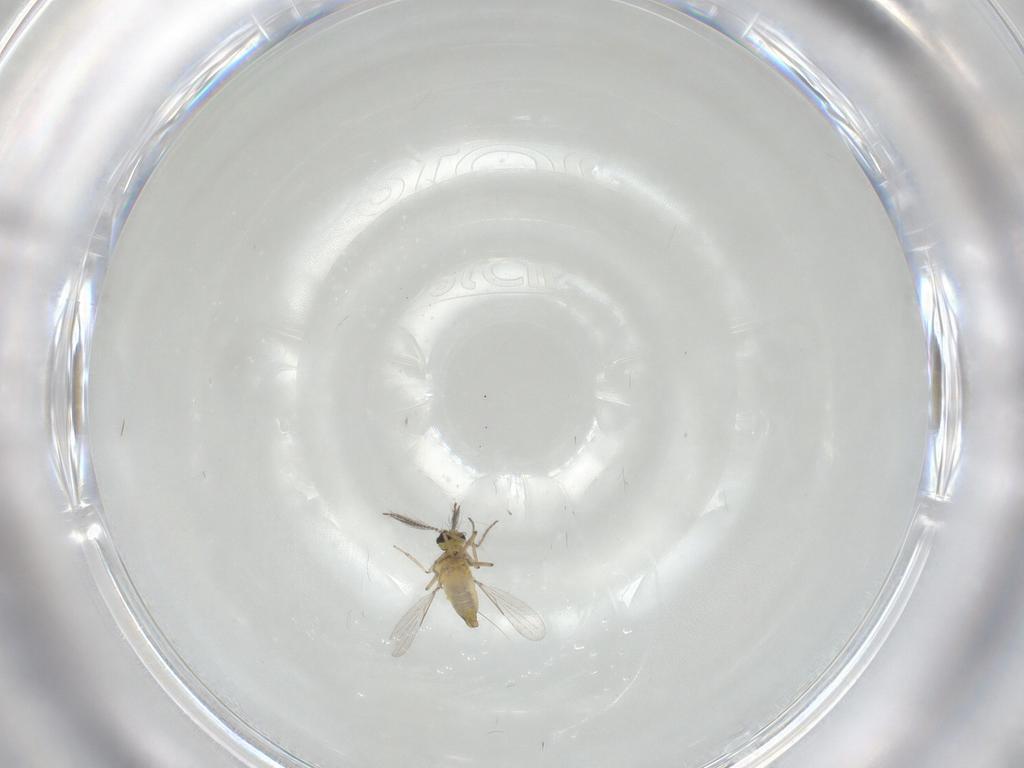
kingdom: Animalia
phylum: Arthropoda
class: Insecta
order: Diptera
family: Ceratopogonidae
